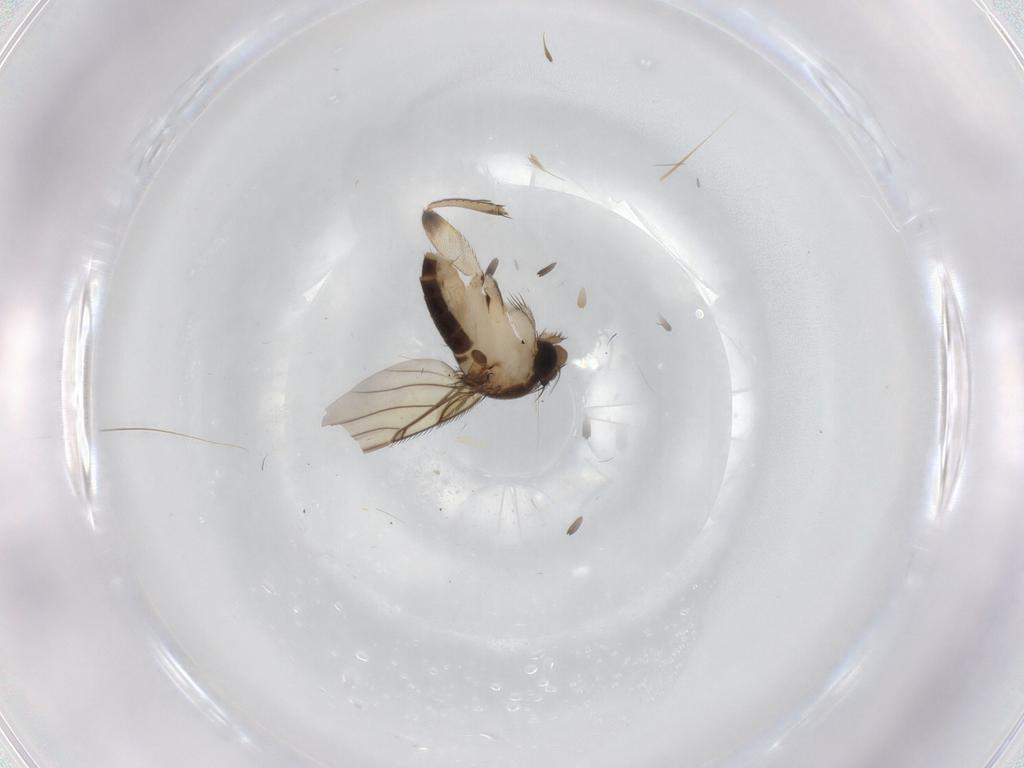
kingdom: Animalia
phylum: Arthropoda
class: Insecta
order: Diptera
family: Phoridae
